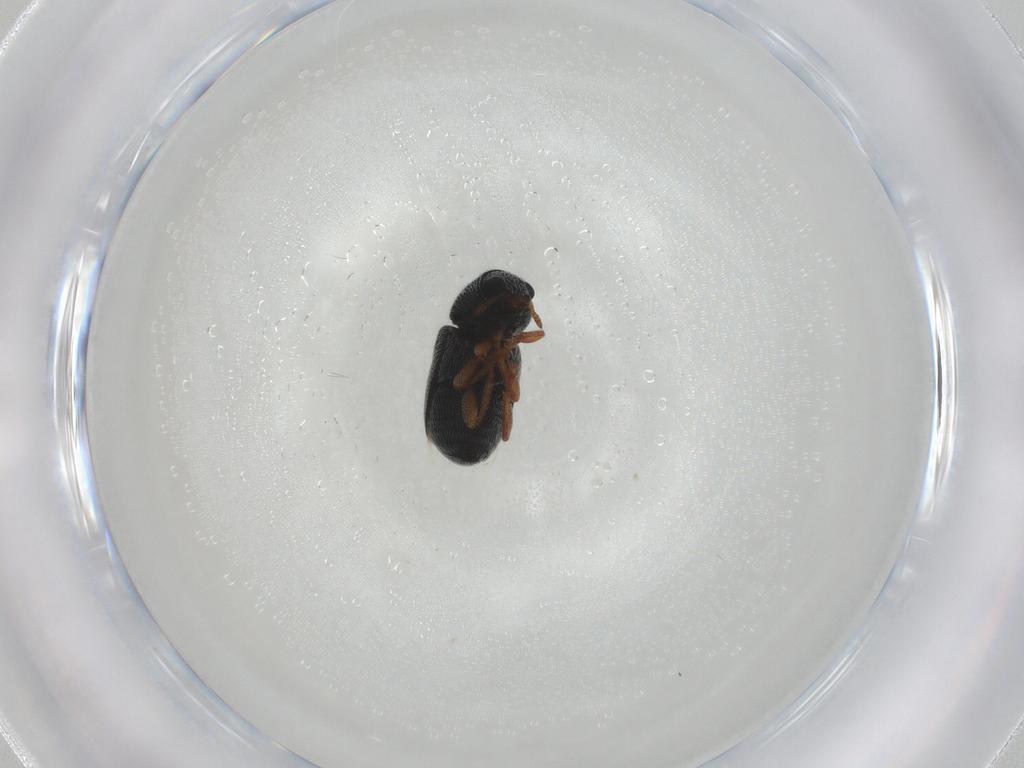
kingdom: Animalia
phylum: Arthropoda
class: Insecta
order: Coleoptera
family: Anthribidae
